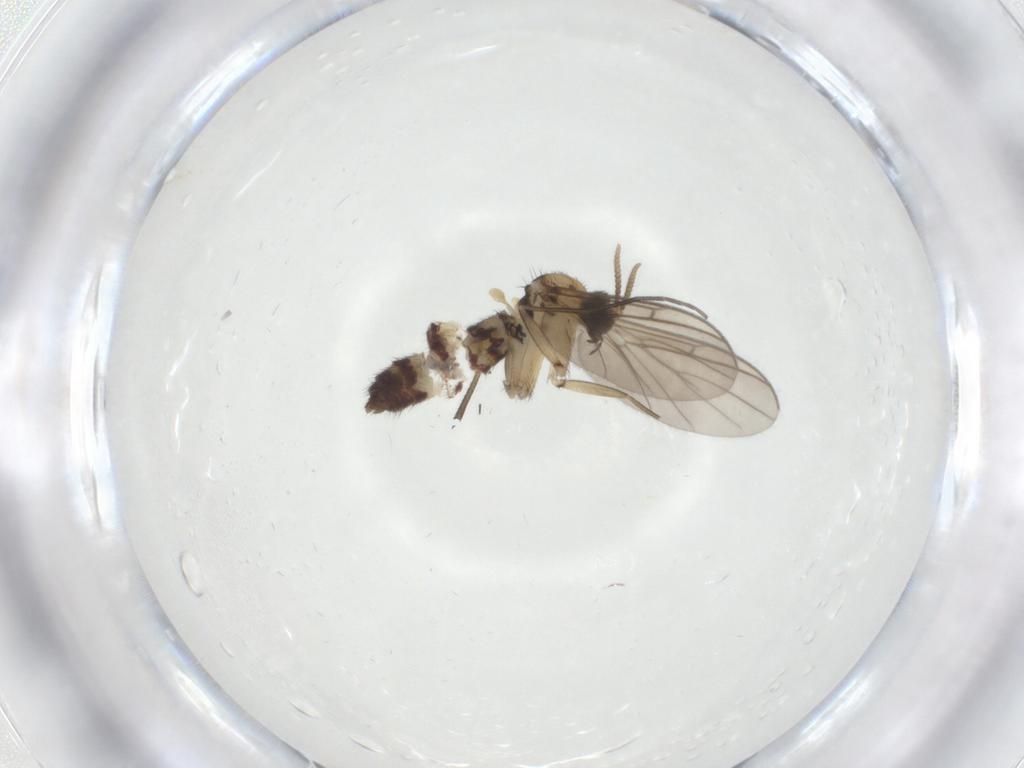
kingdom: Animalia
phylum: Arthropoda
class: Insecta
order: Diptera
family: Keroplatidae
